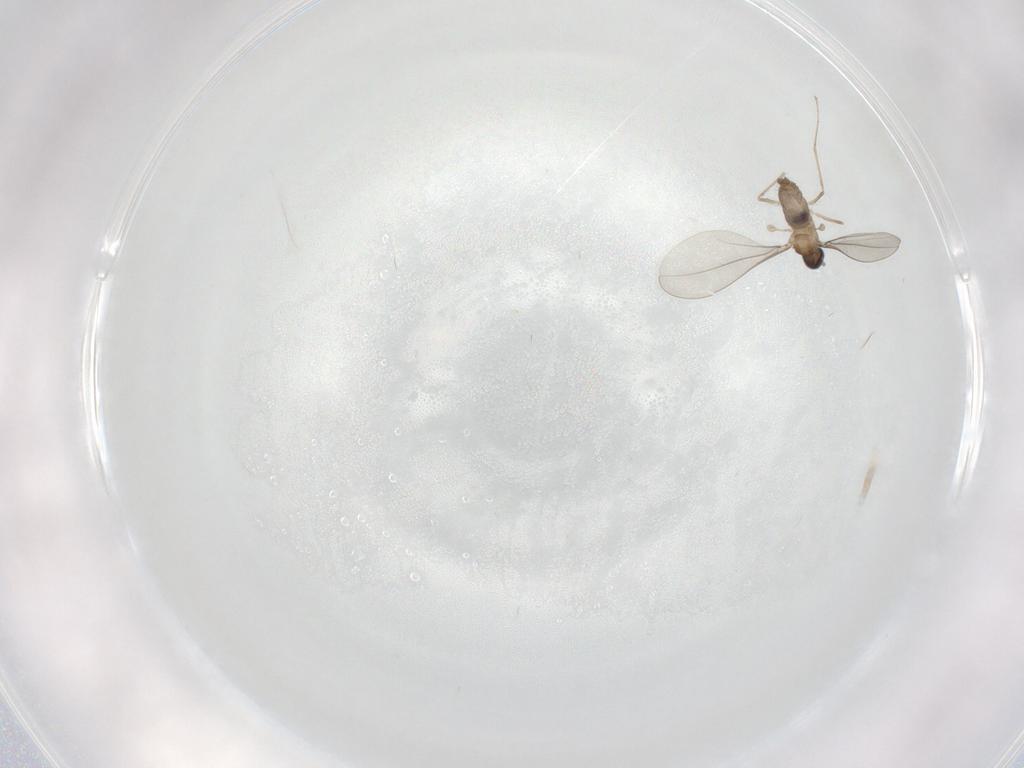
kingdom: Animalia
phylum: Arthropoda
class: Insecta
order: Diptera
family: Cecidomyiidae
